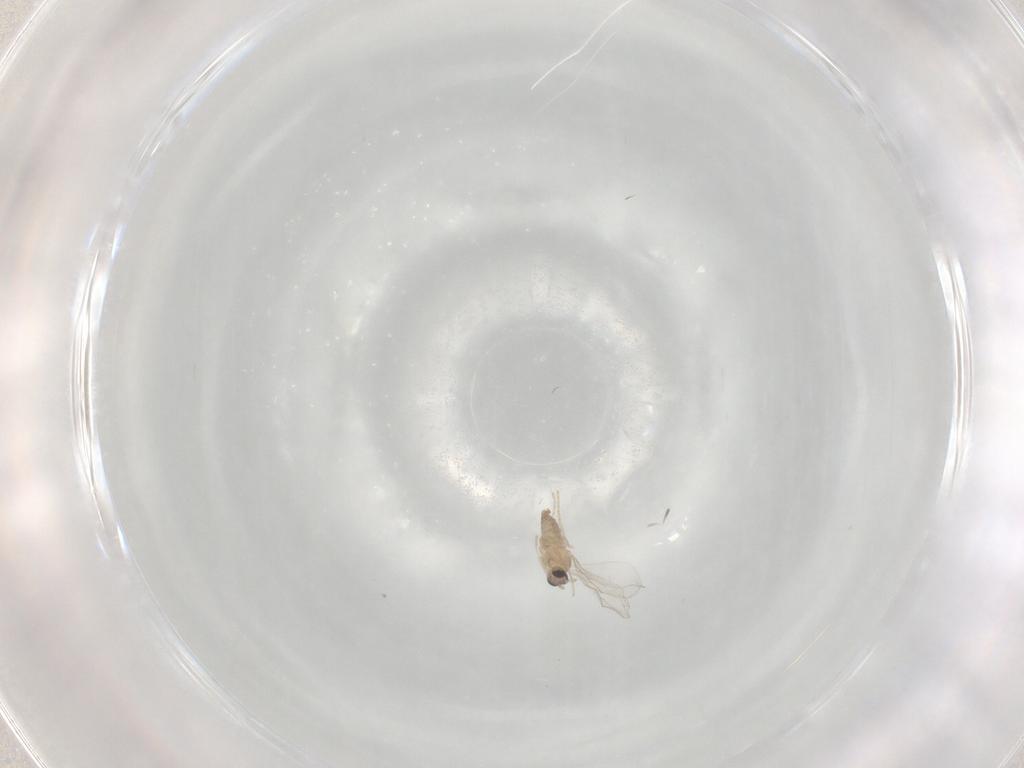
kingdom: Animalia
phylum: Arthropoda
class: Insecta
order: Diptera
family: Cecidomyiidae
